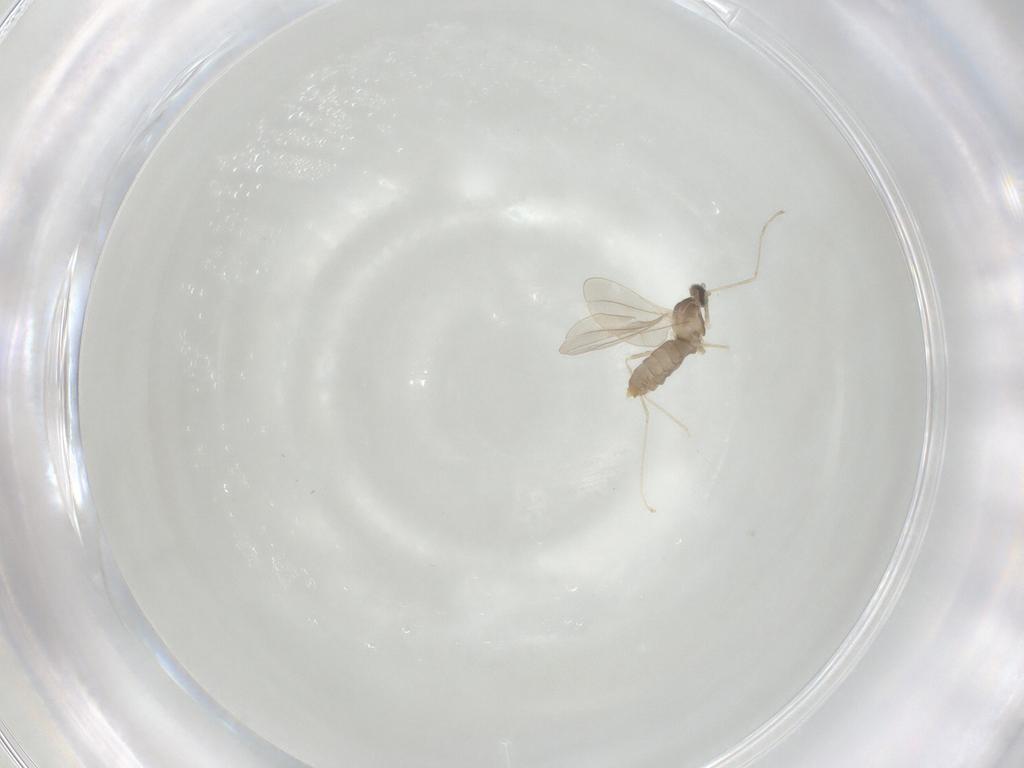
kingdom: Animalia
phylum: Arthropoda
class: Insecta
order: Diptera
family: Cecidomyiidae
